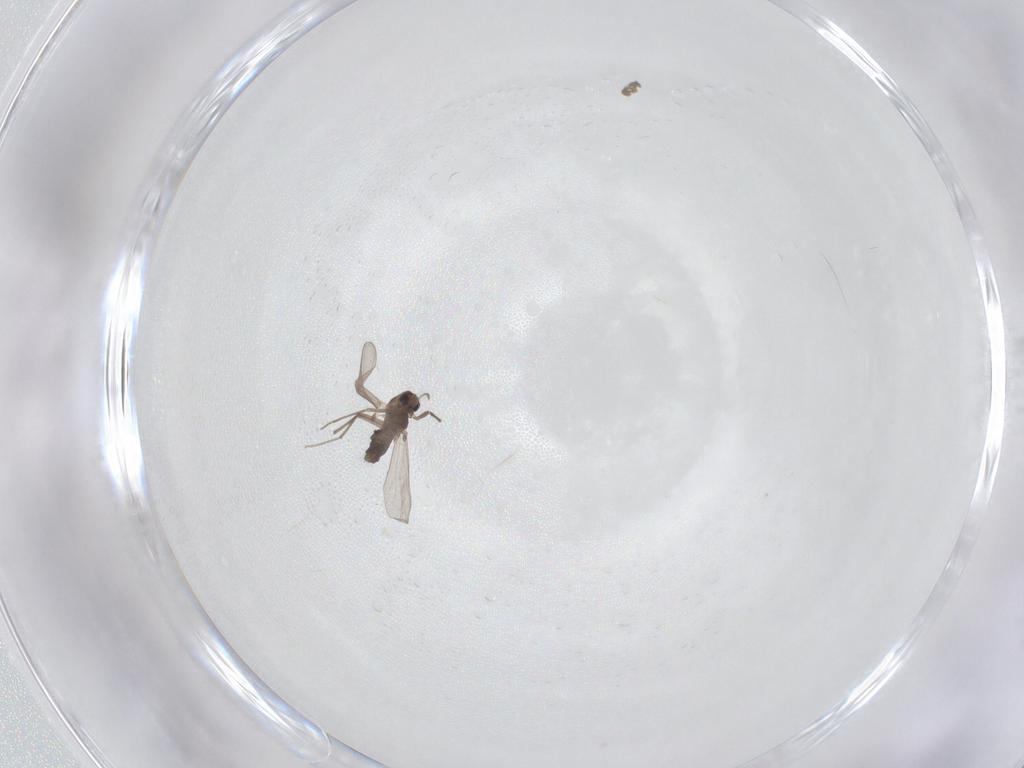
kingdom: Animalia
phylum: Arthropoda
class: Insecta
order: Diptera
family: Chironomidae
